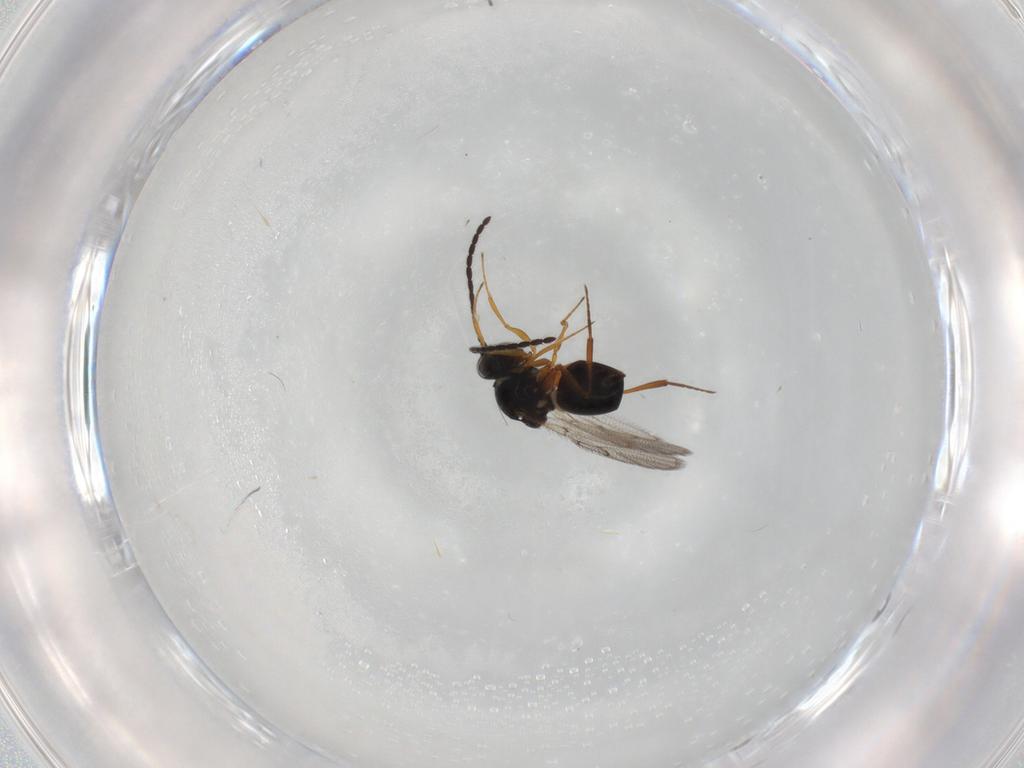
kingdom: Animalia
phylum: Arthropoda
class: Insecta
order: Hymenoptera
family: Figitidae
